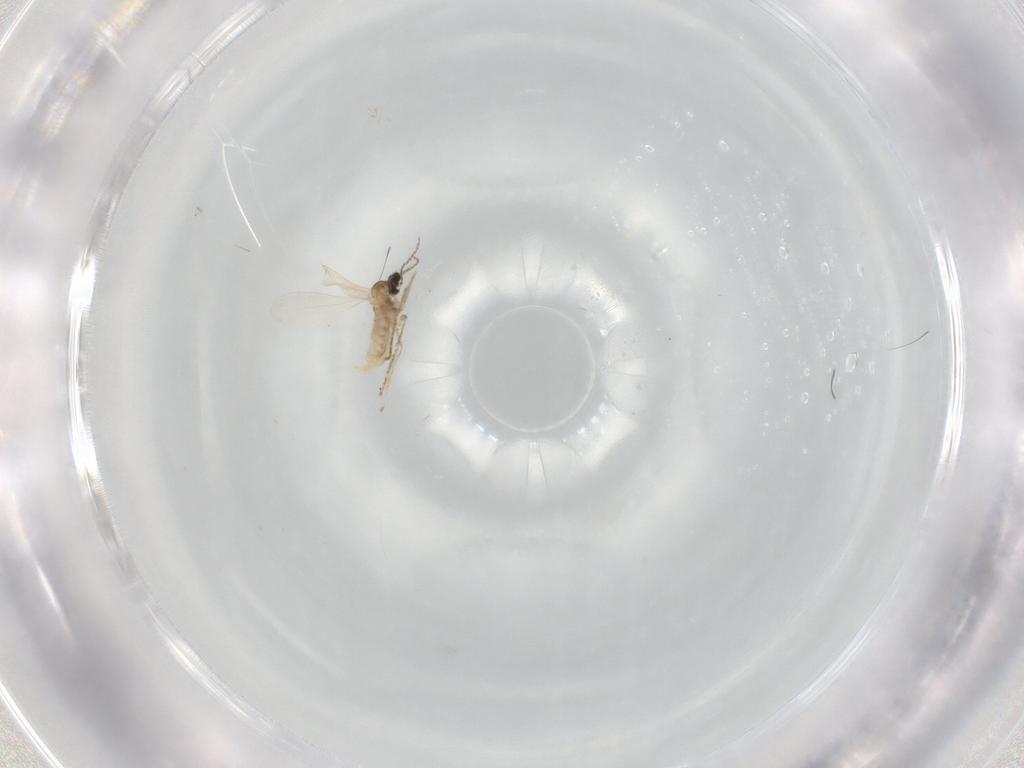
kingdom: Animalia
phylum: Arthropoda
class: Insecta
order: Diptera
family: Cecidomyiidae
